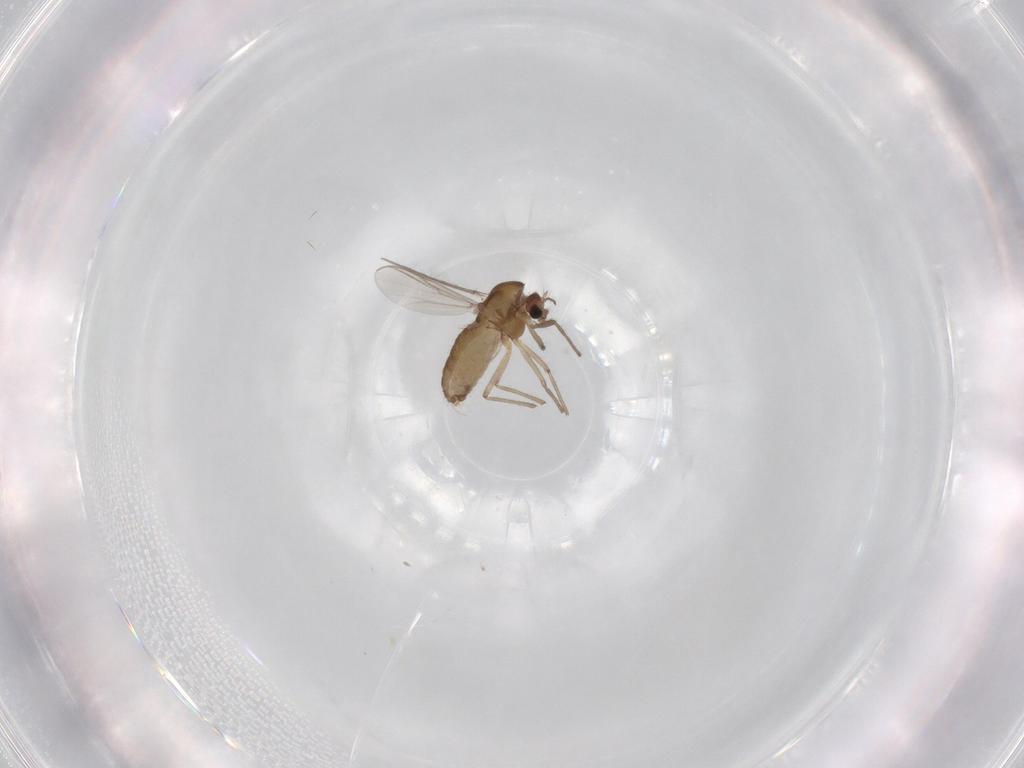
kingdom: Animalia
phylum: Arthropoda
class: Insecta
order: Diptera
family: Chironomidae
